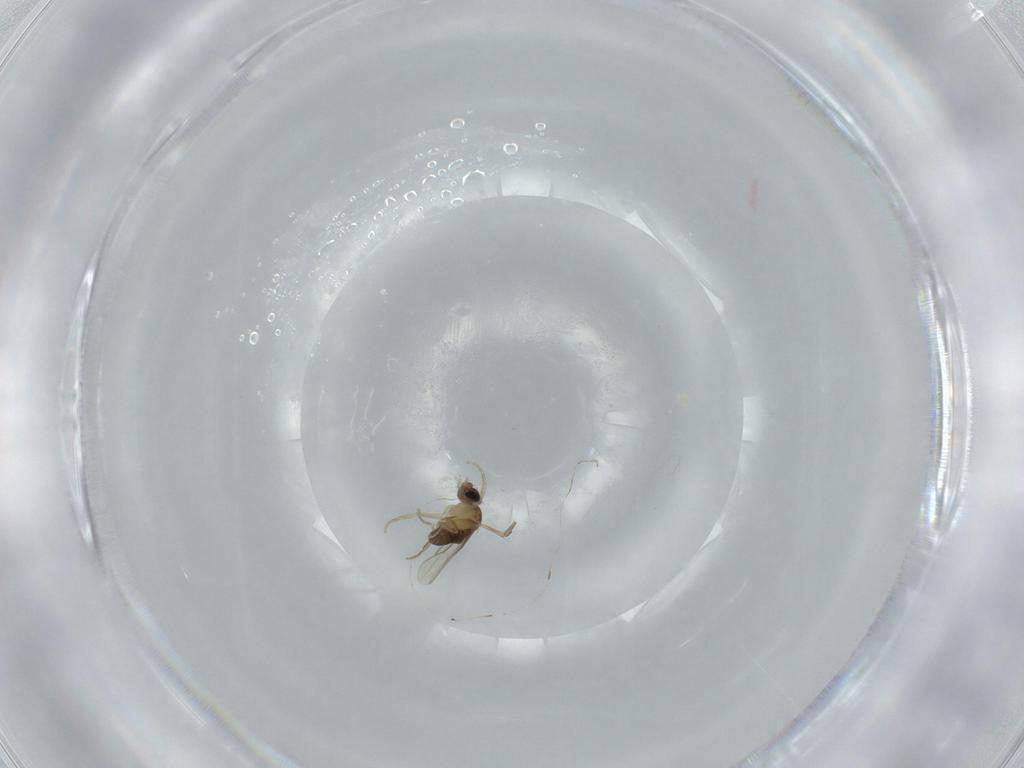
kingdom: Animalia
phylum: Arthropoda
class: Insecta
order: Diptera
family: Phoridae
